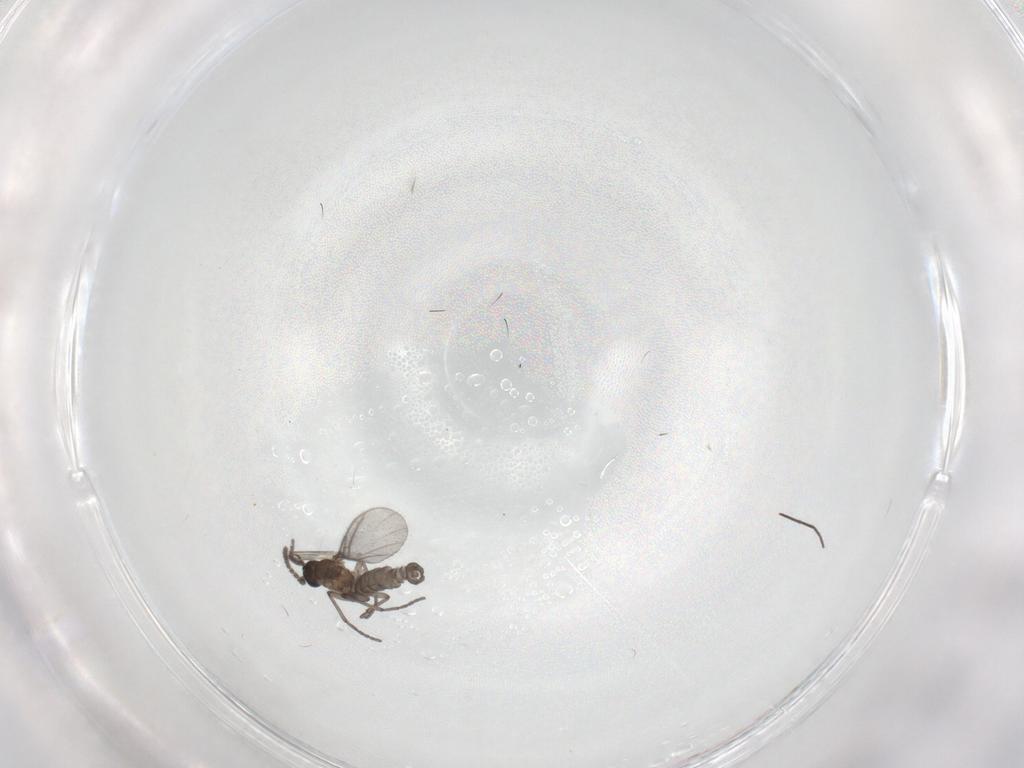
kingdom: Animalia
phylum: Arthropoda
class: Insecta
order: Diptera
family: Sciaridae
